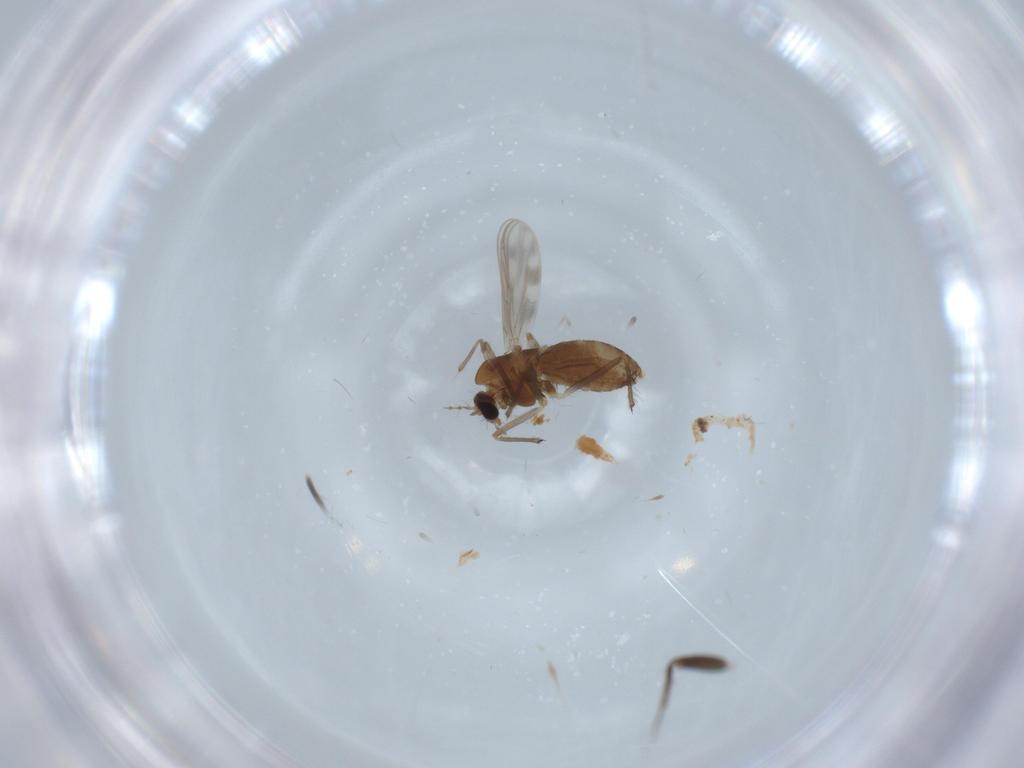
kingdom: Animalia
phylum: Arthropoda
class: Insecta
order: Diptera
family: Chironomidae
